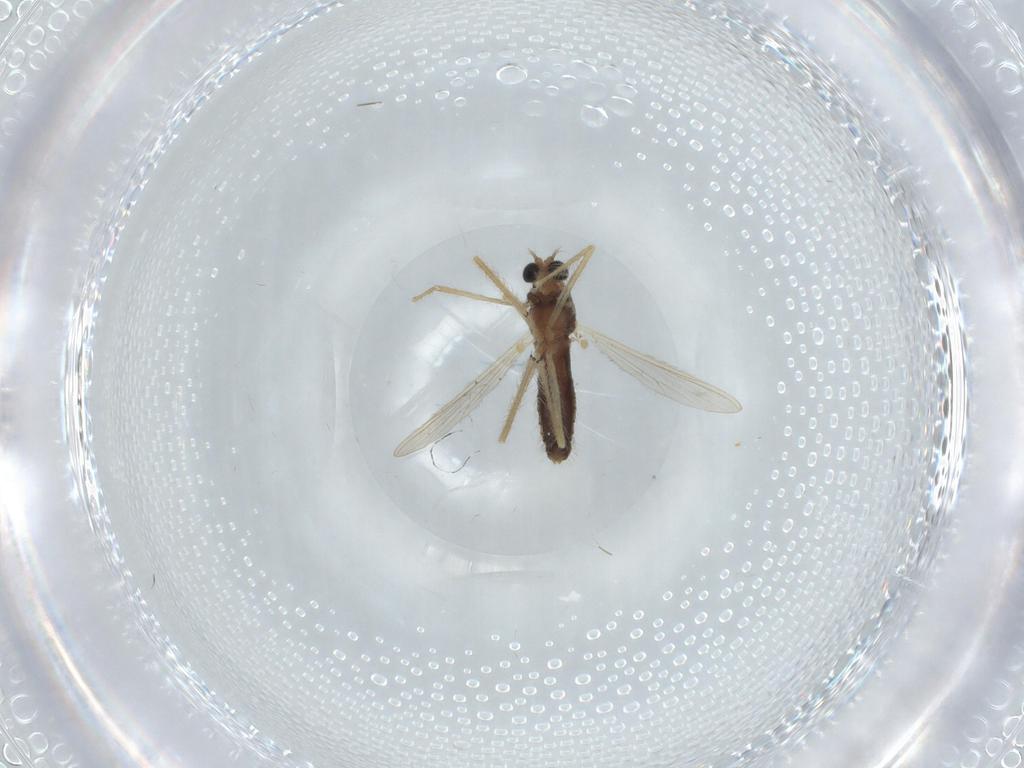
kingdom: Animalia
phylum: Arthropoda
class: Insecta
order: Diptera
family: Chironomidae
